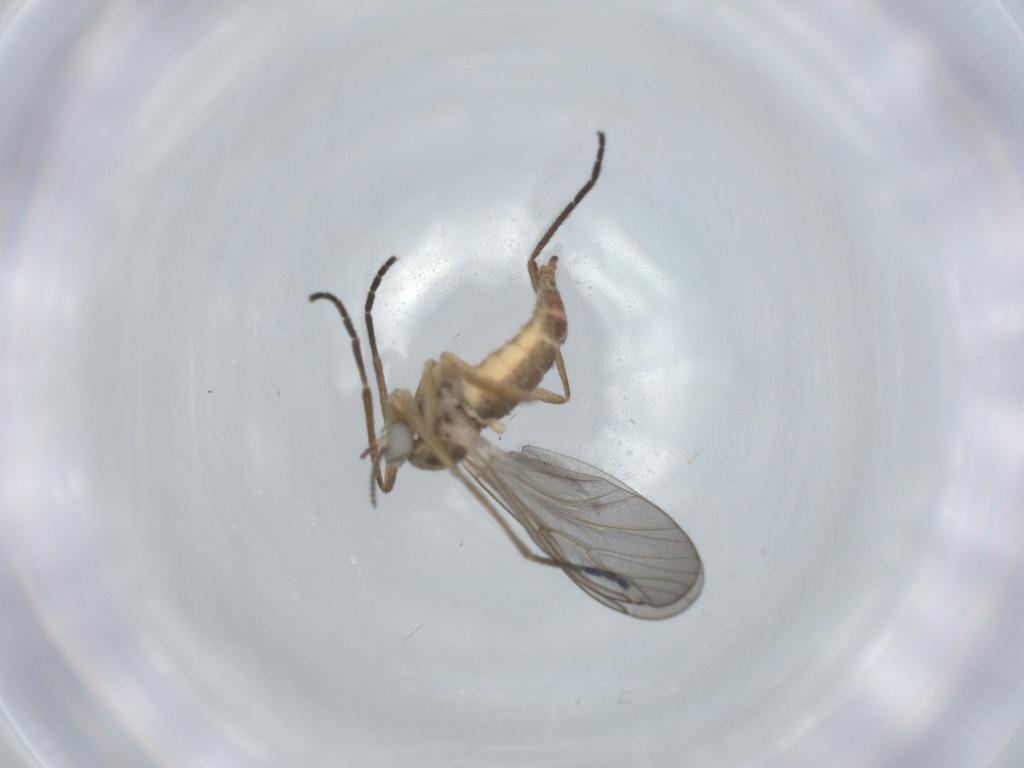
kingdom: Animalia
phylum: Arthropoda
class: Insecta
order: Diptera
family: Cecidomyiidae
